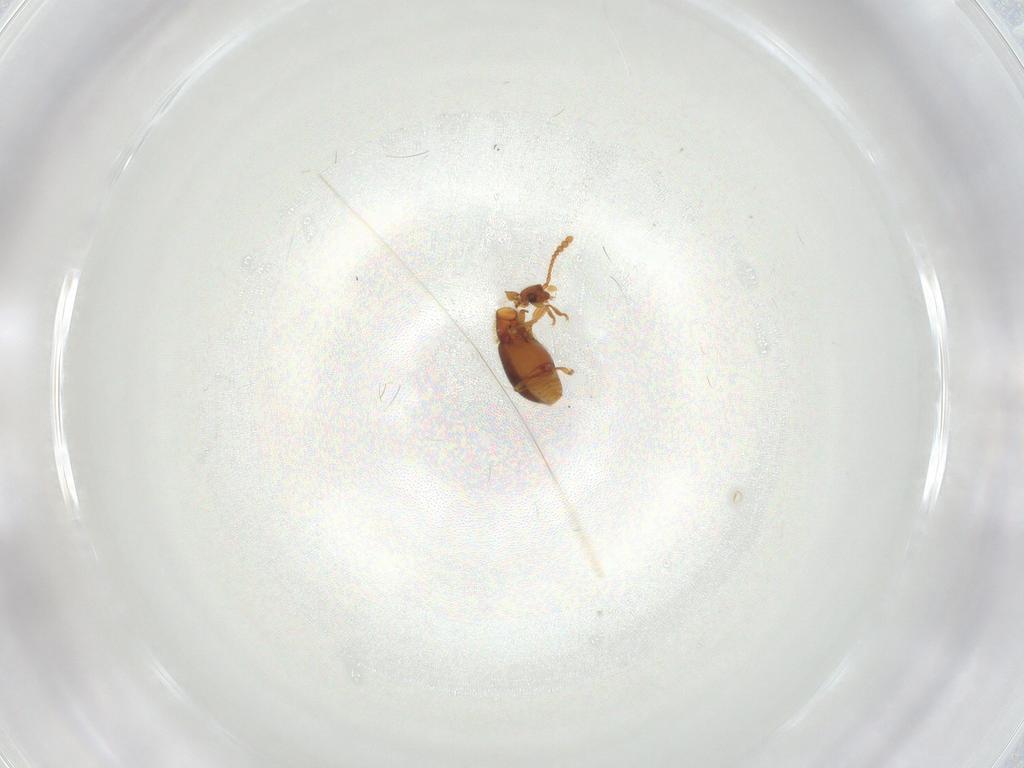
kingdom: Animalia
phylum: Arthropoda
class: Insecta
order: Coleoptera
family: Staphylinidae
